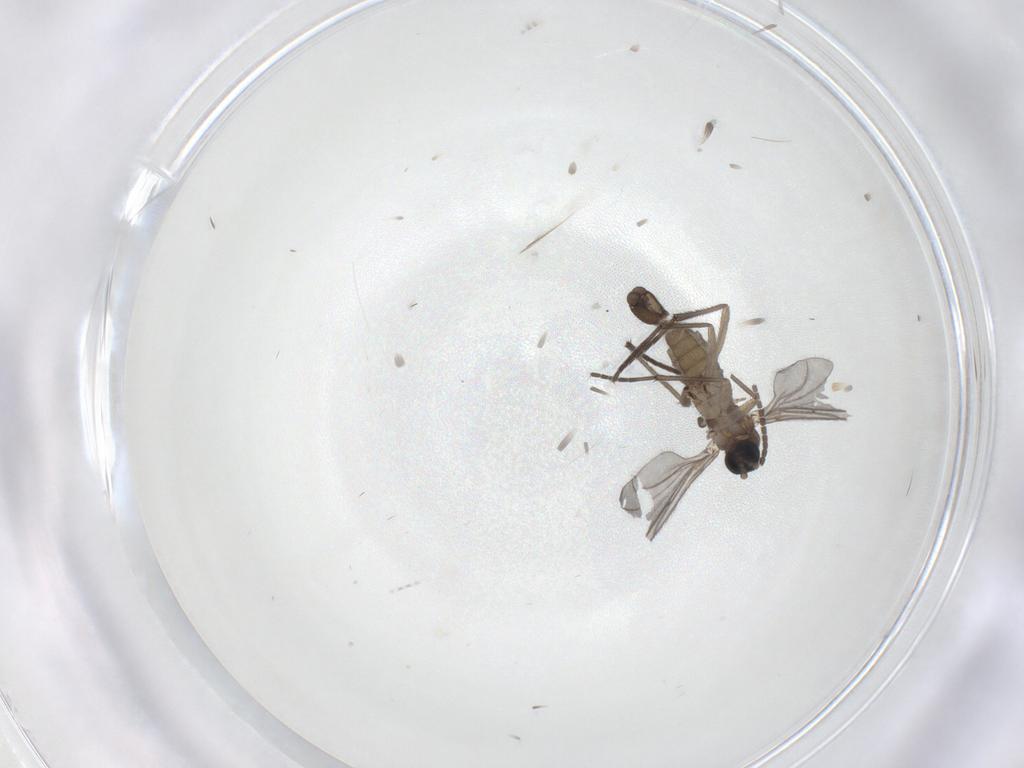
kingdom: Animalia
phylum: Arthropoda
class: Insecta
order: Diptera
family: Sciaridae
